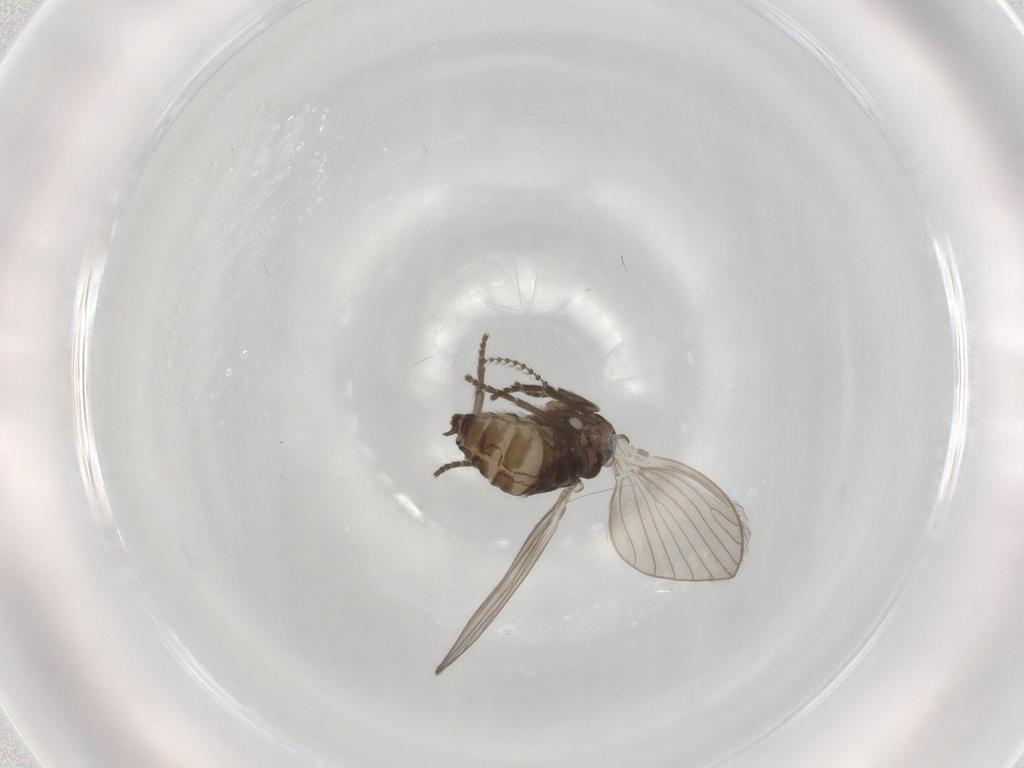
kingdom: Animalia
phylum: Arthropoda
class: Insecta
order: Diptera
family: Psychodidae
